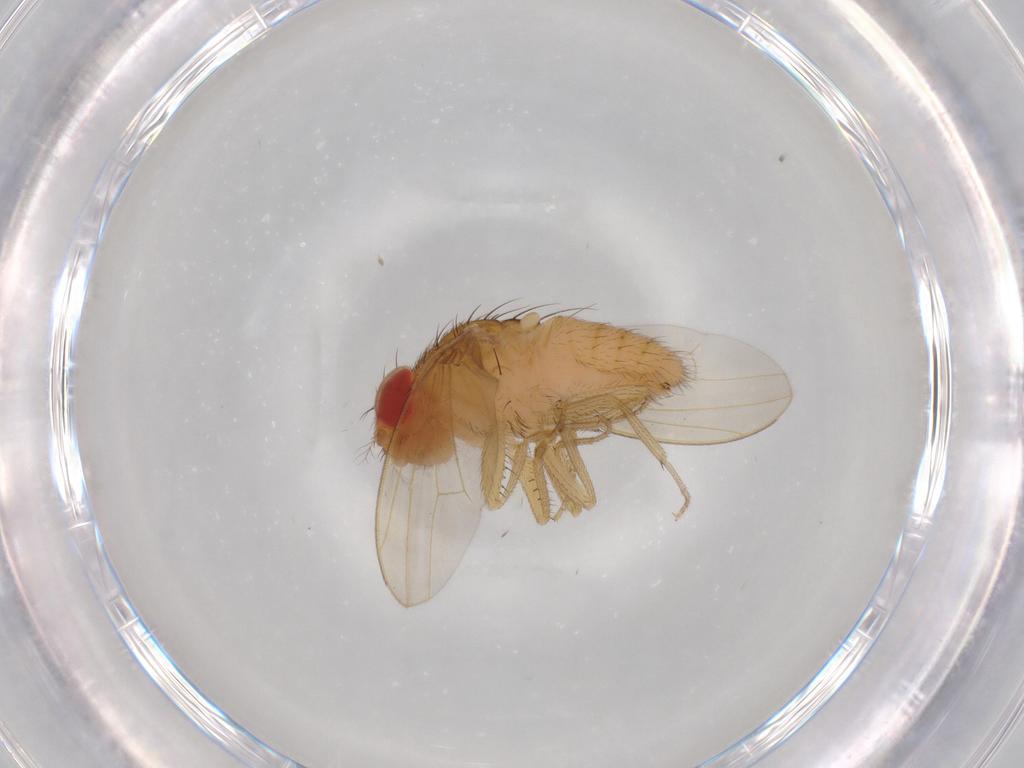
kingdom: Animalia
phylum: Arthropoda
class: Insecta
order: Diptera
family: Drosophilidae
